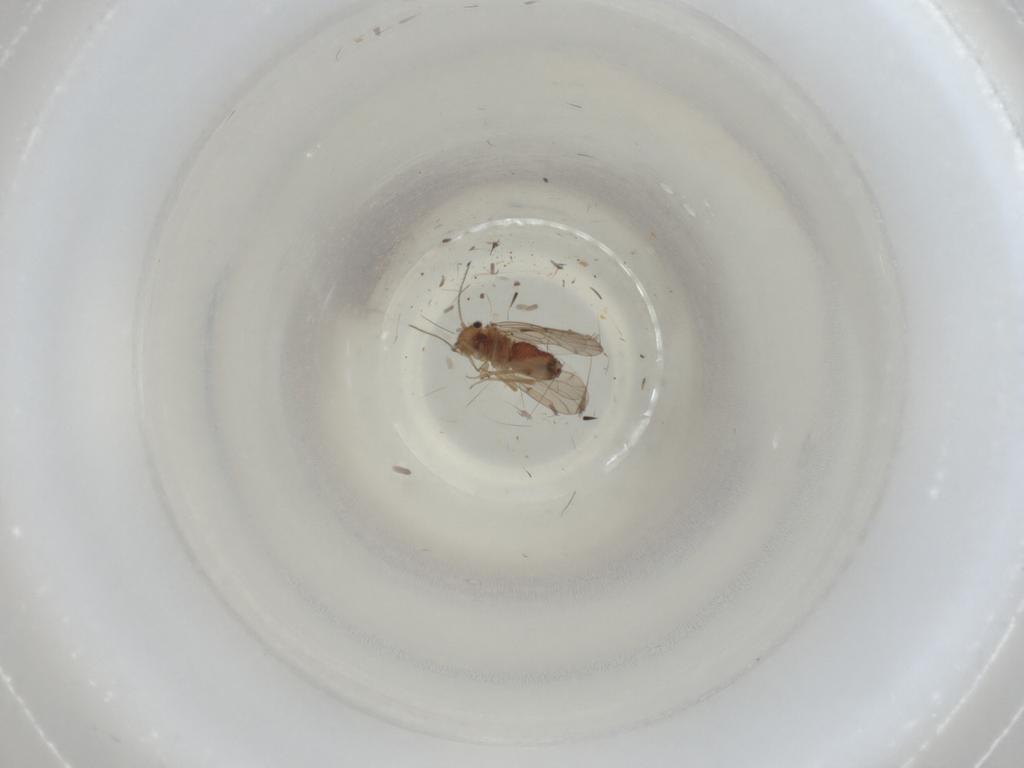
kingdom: Animalia
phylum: Arthropoda
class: Insecta
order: Psocodea
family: Ectopsocidae
